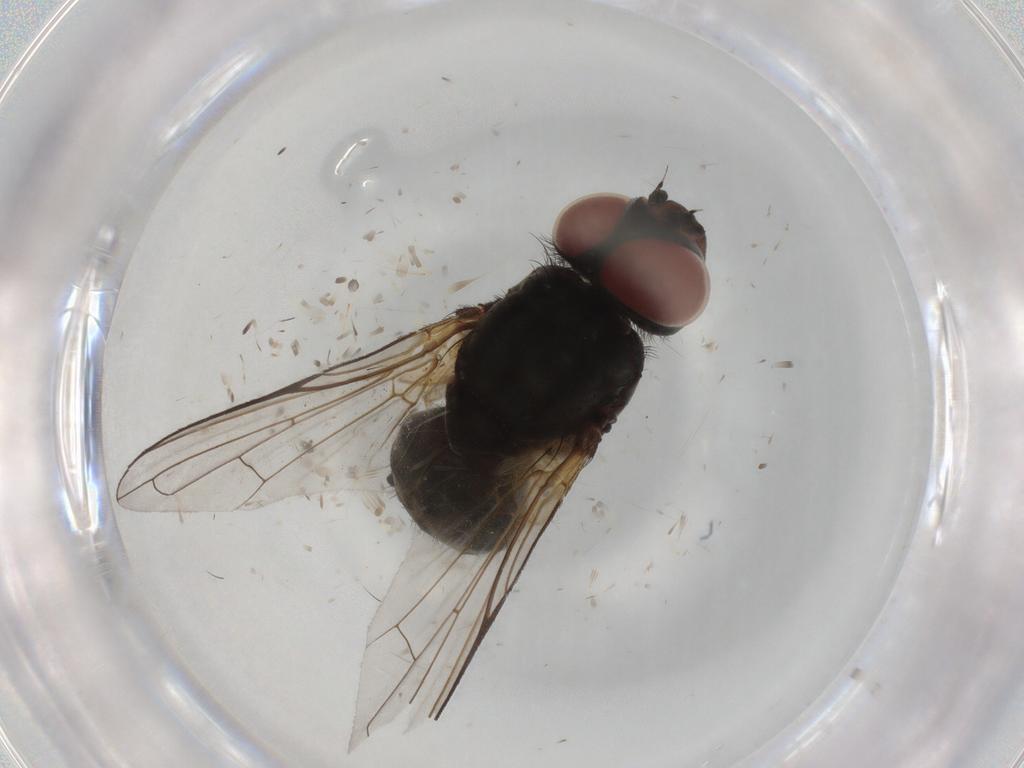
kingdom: Animalia
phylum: Arthropoda
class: Insecta
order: Diptera
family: Tachinidae
